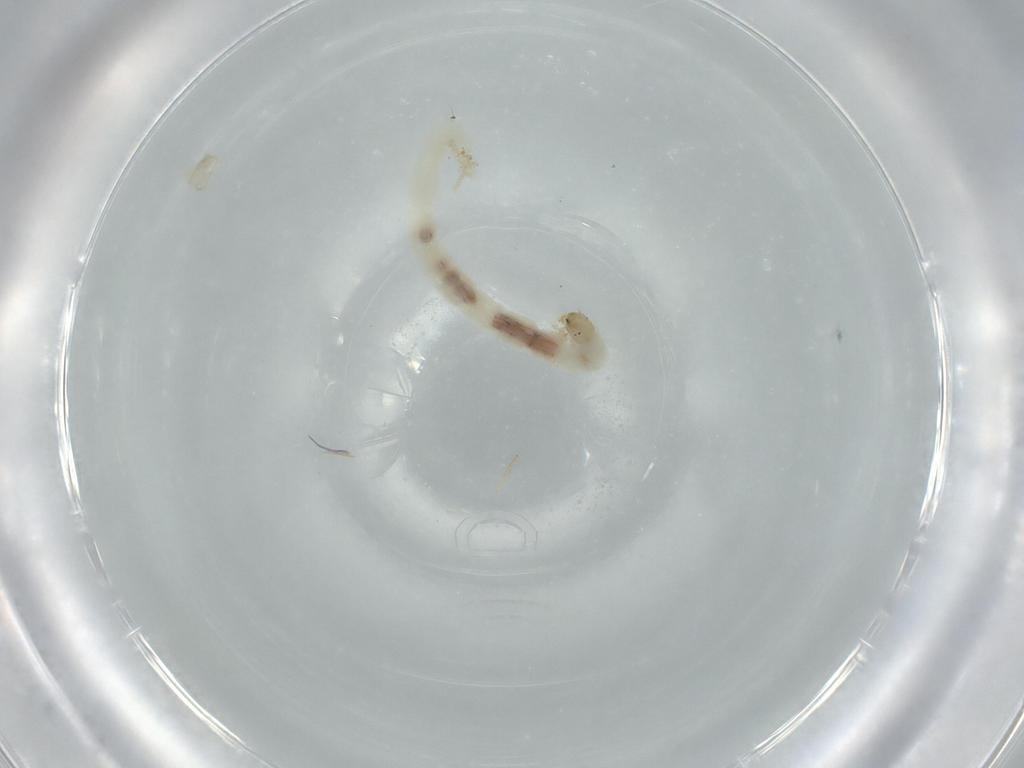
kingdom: Animalia
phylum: Arthropoda
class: Insecta
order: Diptera
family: Chironomidae
